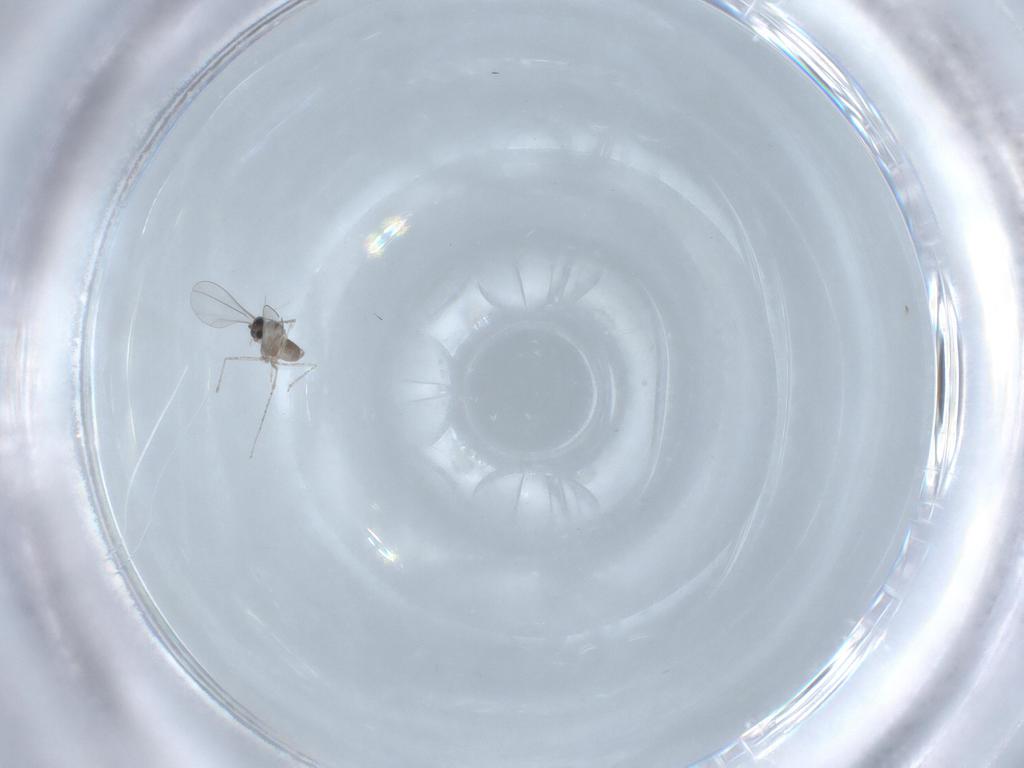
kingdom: Animalia
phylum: Arthropoda
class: Insecta
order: Diptera
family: Cecidomyiidae
